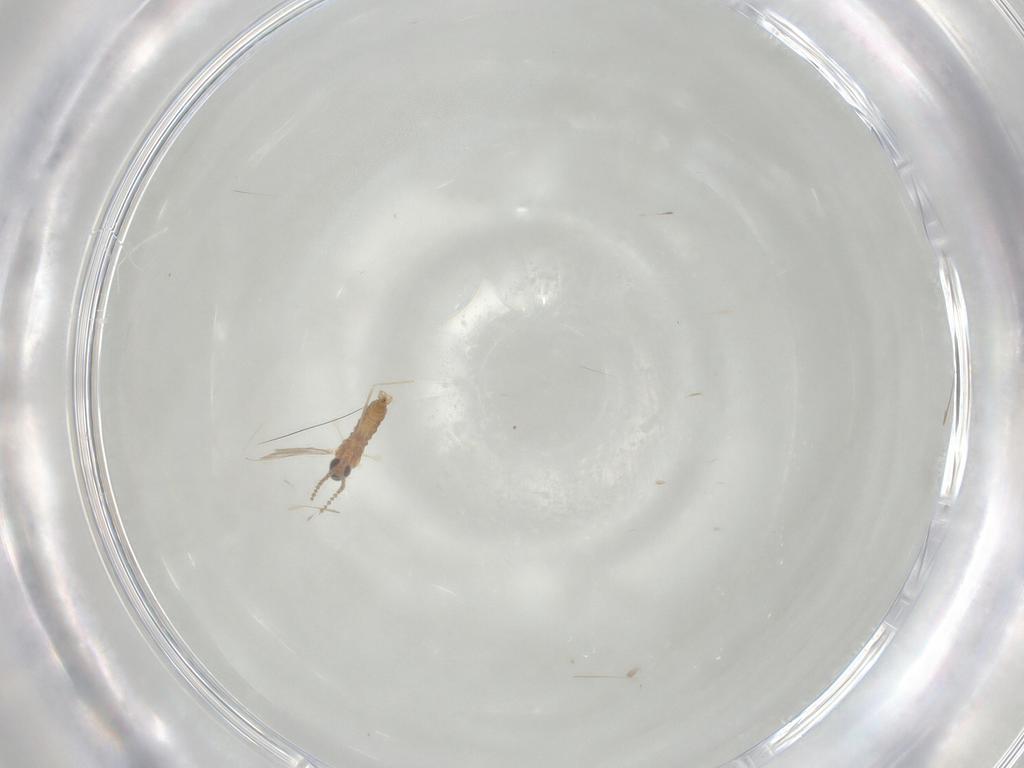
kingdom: Animalia
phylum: Arthropoda
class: Insecta
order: Diptera
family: Cecidomyiidae
